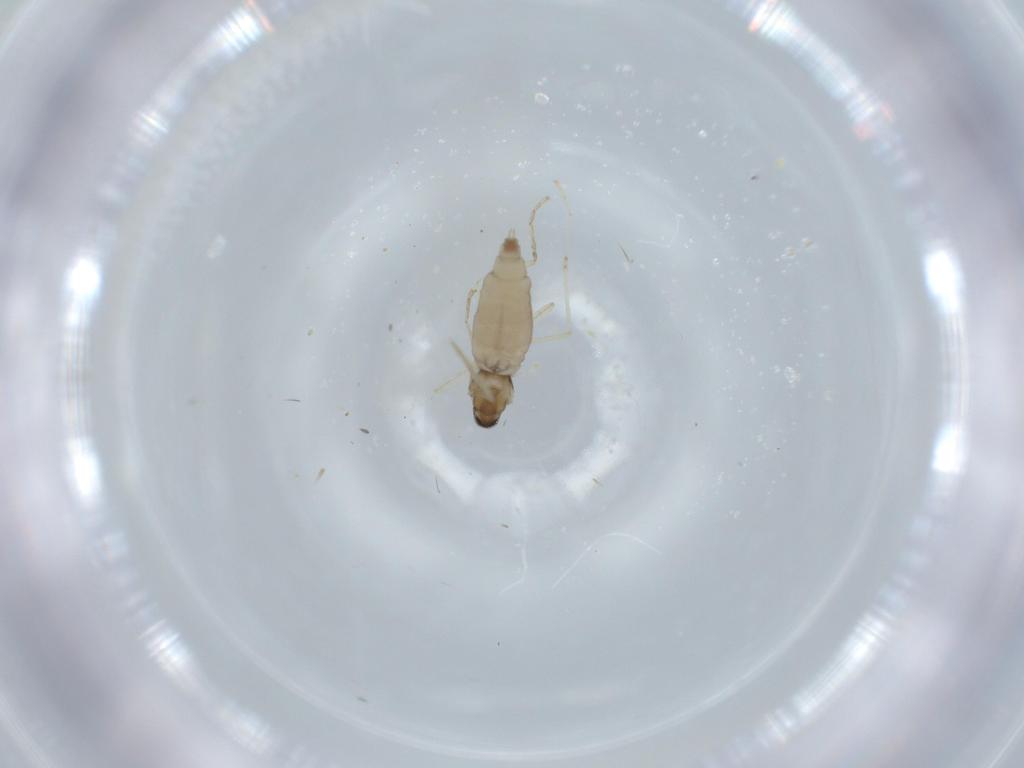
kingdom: Animalia
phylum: Arthropoda
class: Insecta
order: Diptera
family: Cecidomyiidae
